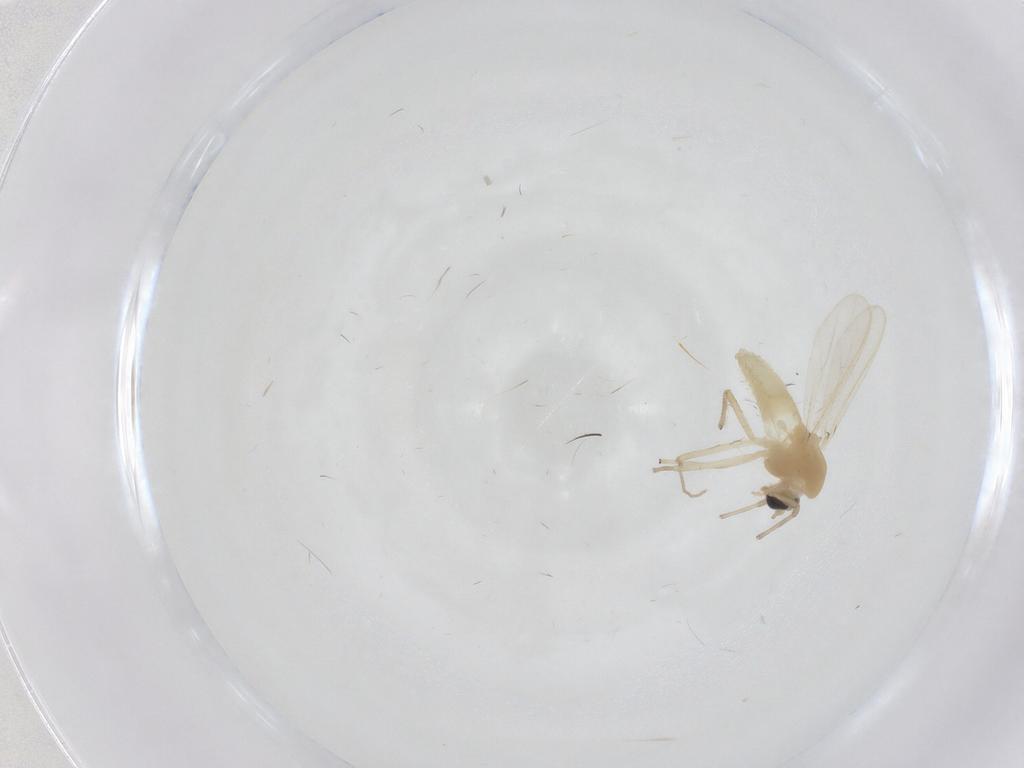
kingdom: Animalia
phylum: Arthropoda
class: Insecta
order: Diptera
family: Chironomidae
